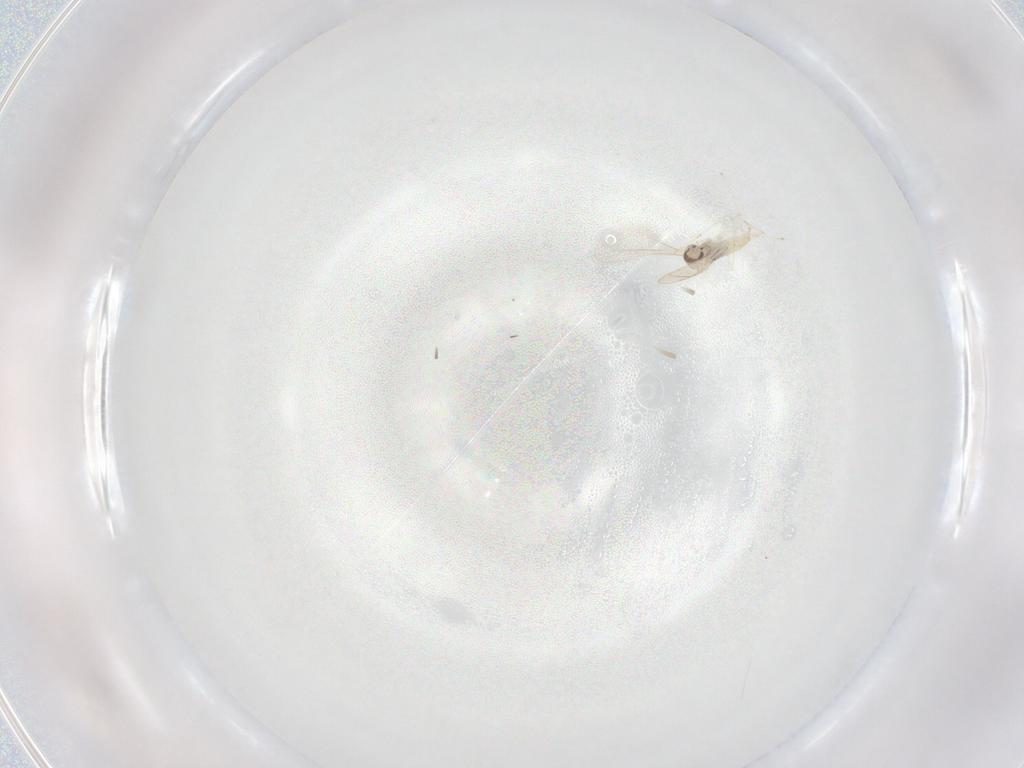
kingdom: Animalia
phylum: Arthropoda
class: Insecta
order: Diptera
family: Cecidomyiidae
